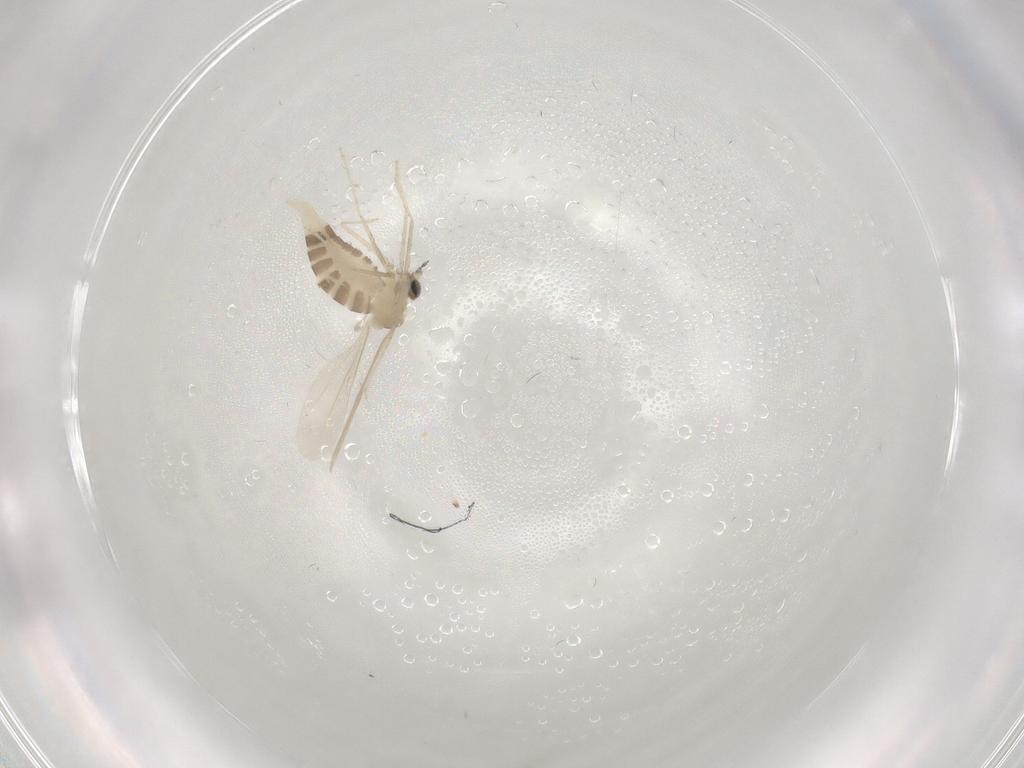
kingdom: Animalia
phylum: Arthropoda
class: Insecta
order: Diptera
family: Cecidomyiidae
